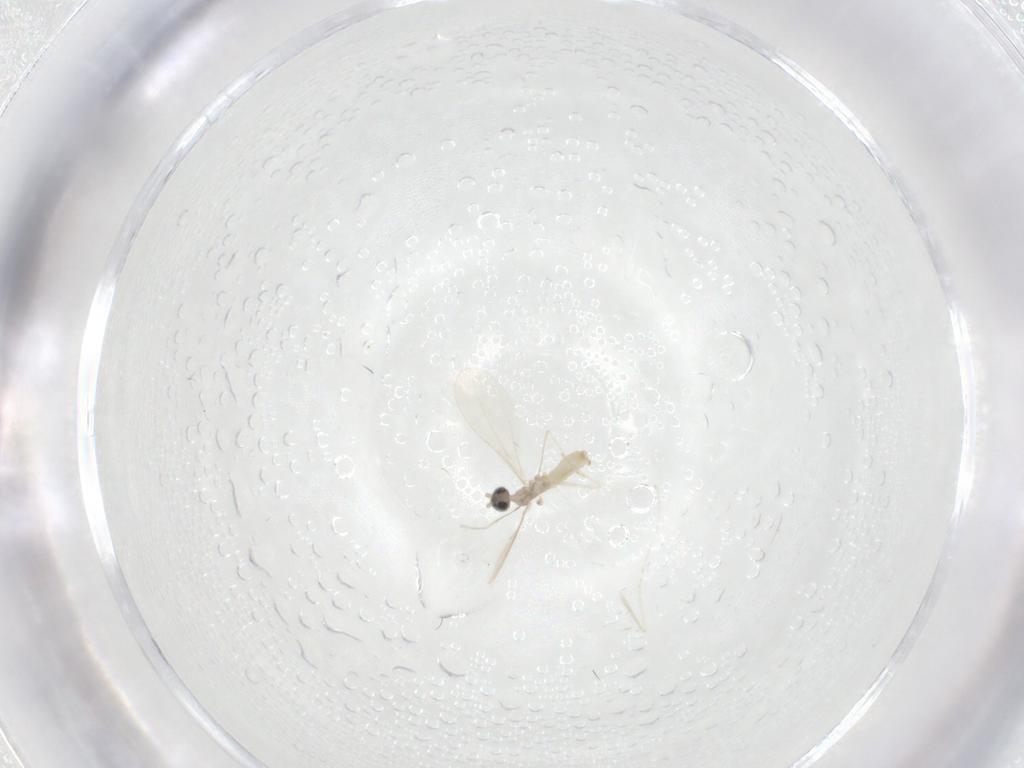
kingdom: Animalia
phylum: Arthropoda
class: Insecta
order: Diptera
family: Cecidomyiidae
